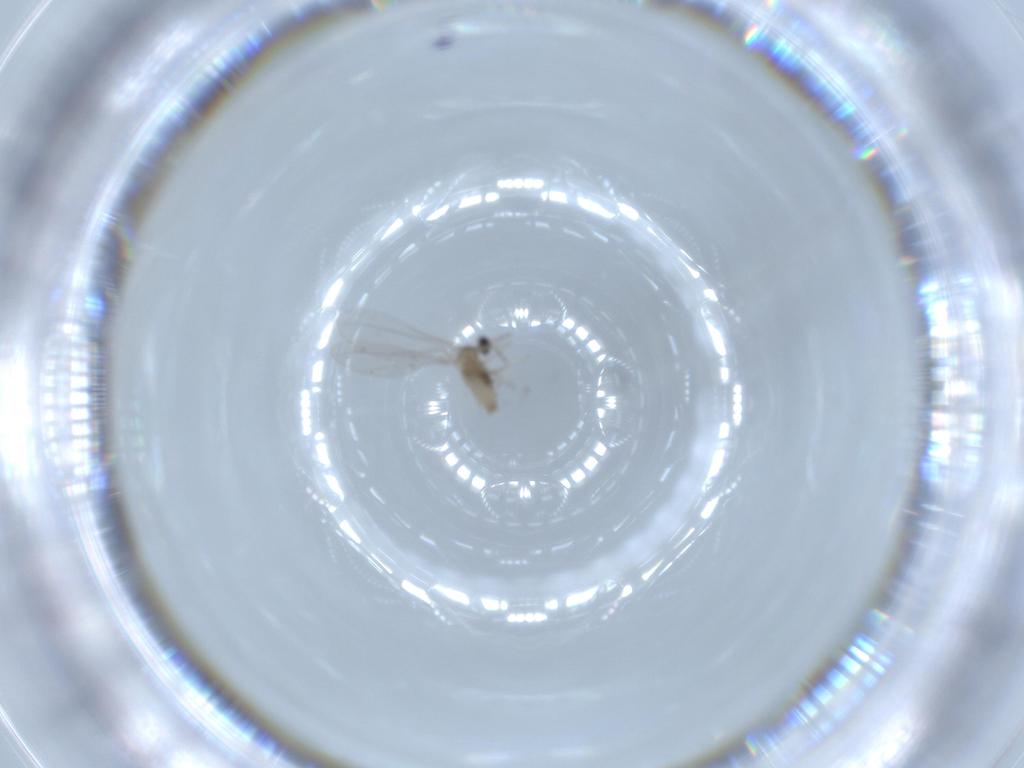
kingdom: Animalia
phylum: Arthropoda
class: Insecta
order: Diptera
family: Cecidomyiidae
